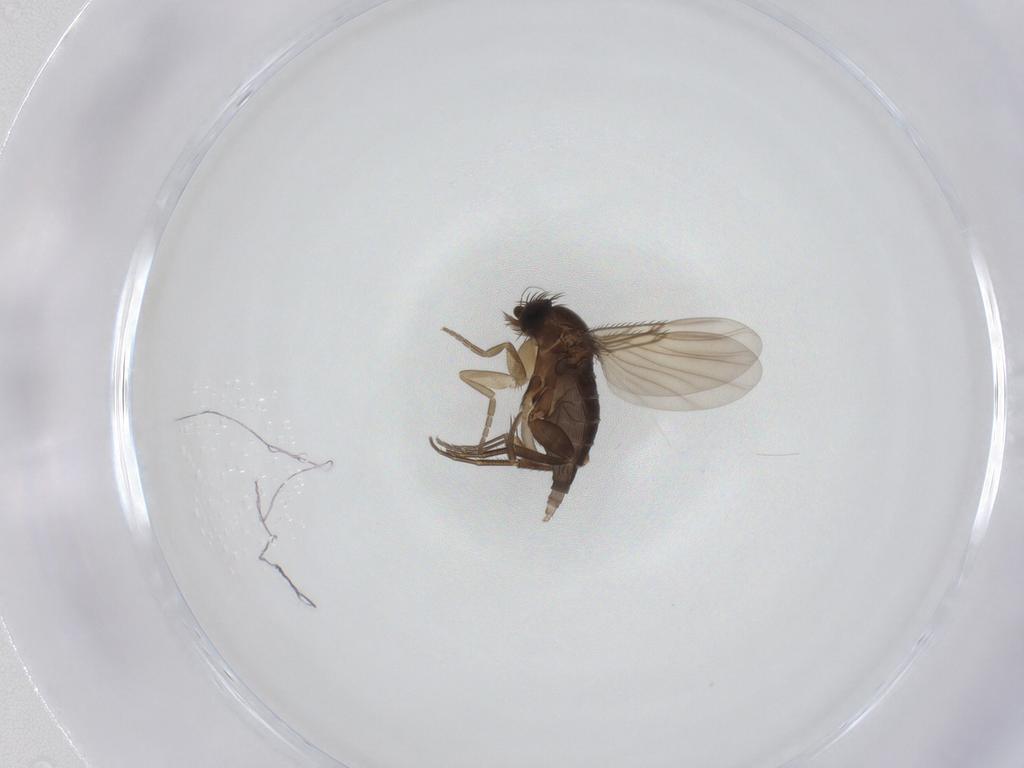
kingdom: Animalia
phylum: Arthropoda
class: Insecta
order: Diptera
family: Phoridae
